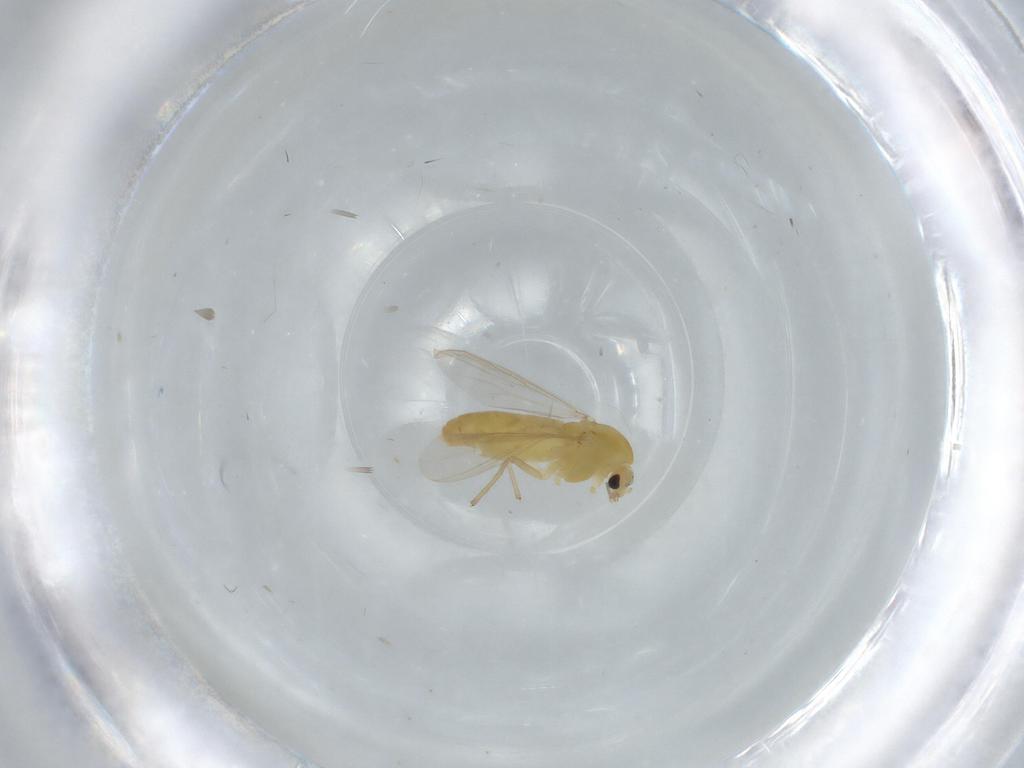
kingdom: Animalia
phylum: Arthropoda
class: Insecta
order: Diptera
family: Chironomidae
